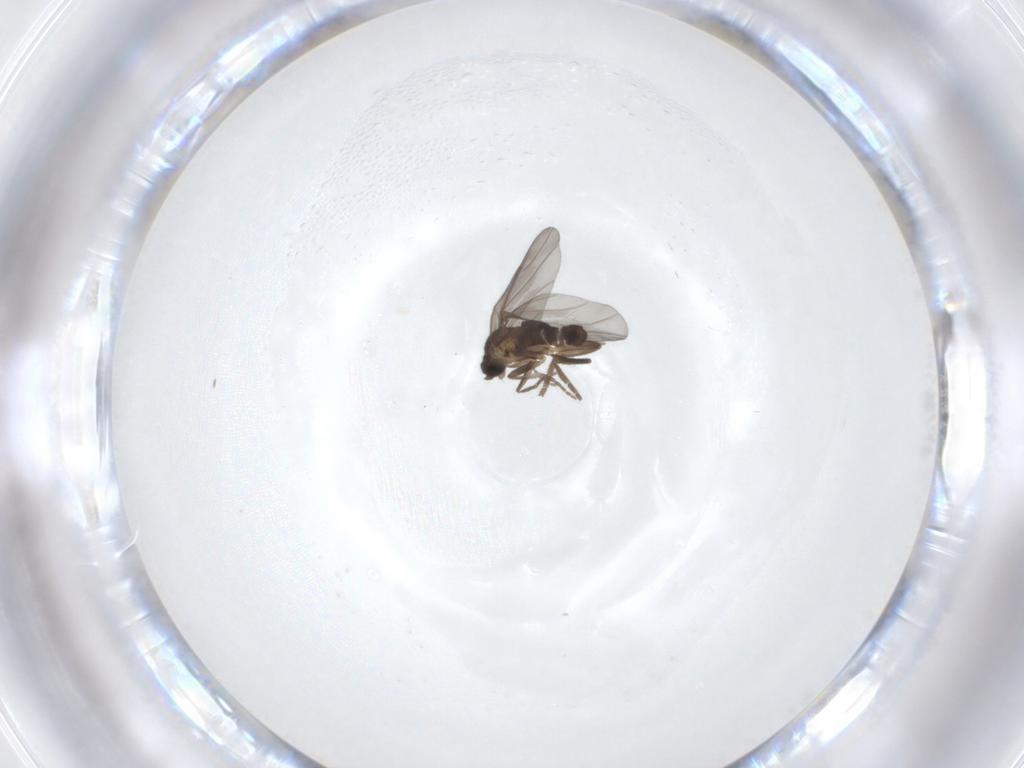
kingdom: Animalia
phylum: Arthropoda
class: Insecta
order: Diptera
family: Phoridae
